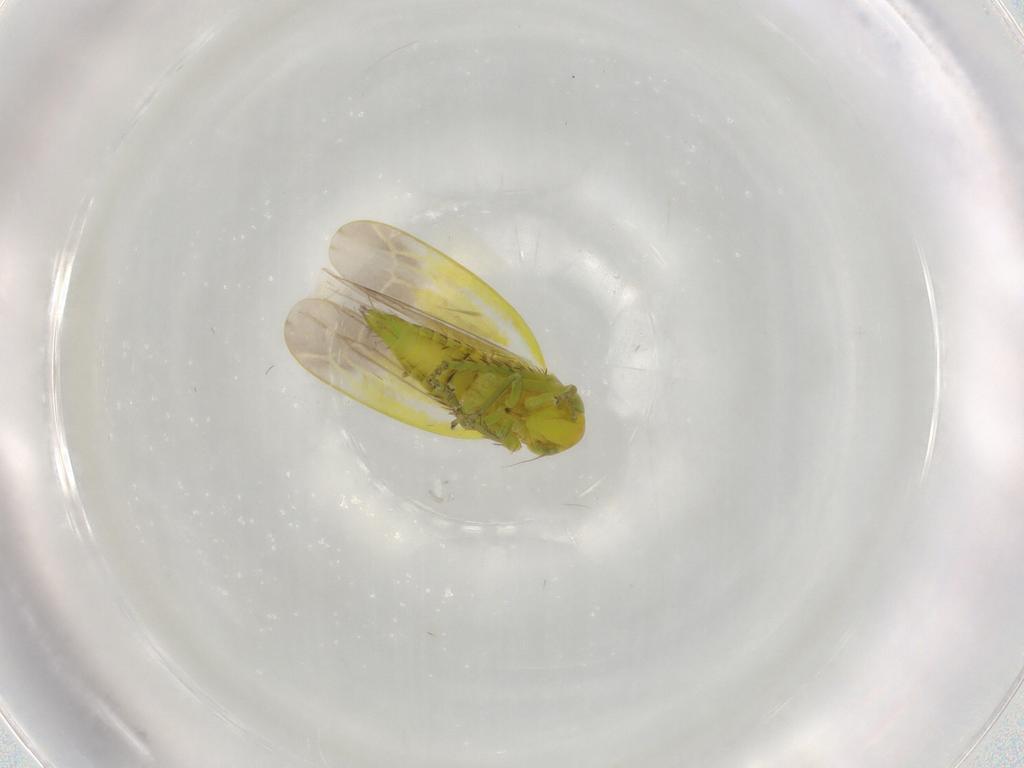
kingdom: Animalia
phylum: Arthropoda
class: Insecta
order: Hemiptera
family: Cicadellidae
